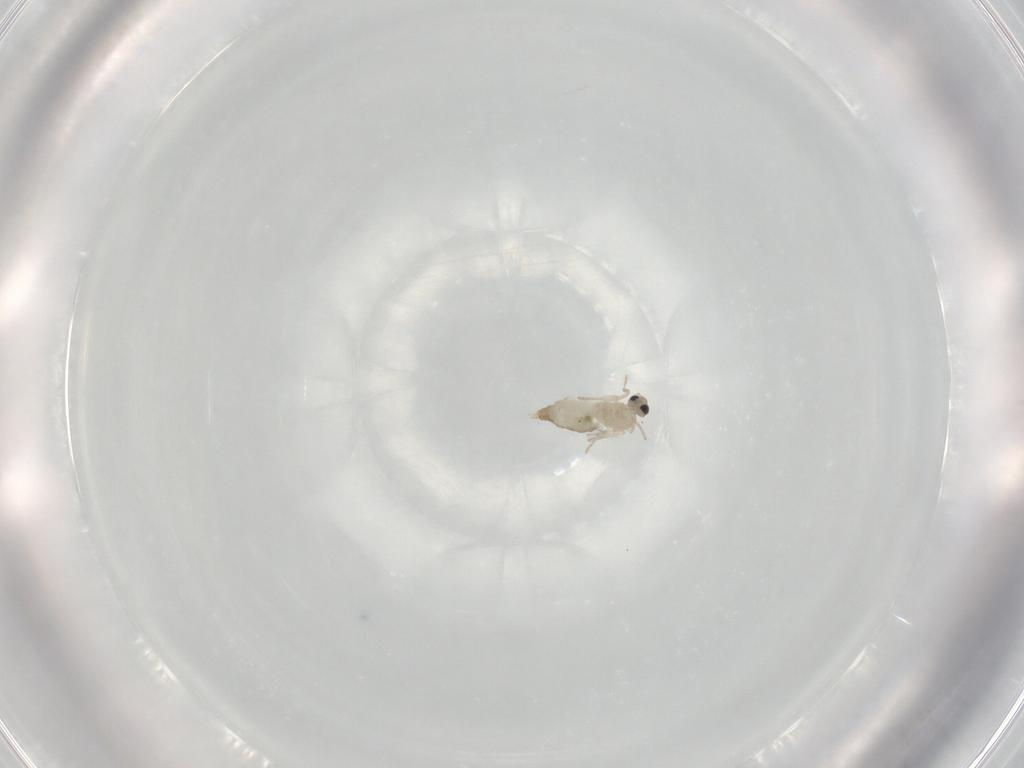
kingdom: Animalia
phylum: Arthropoda
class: Insecta
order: Diptera
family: Cecidomyiidae
